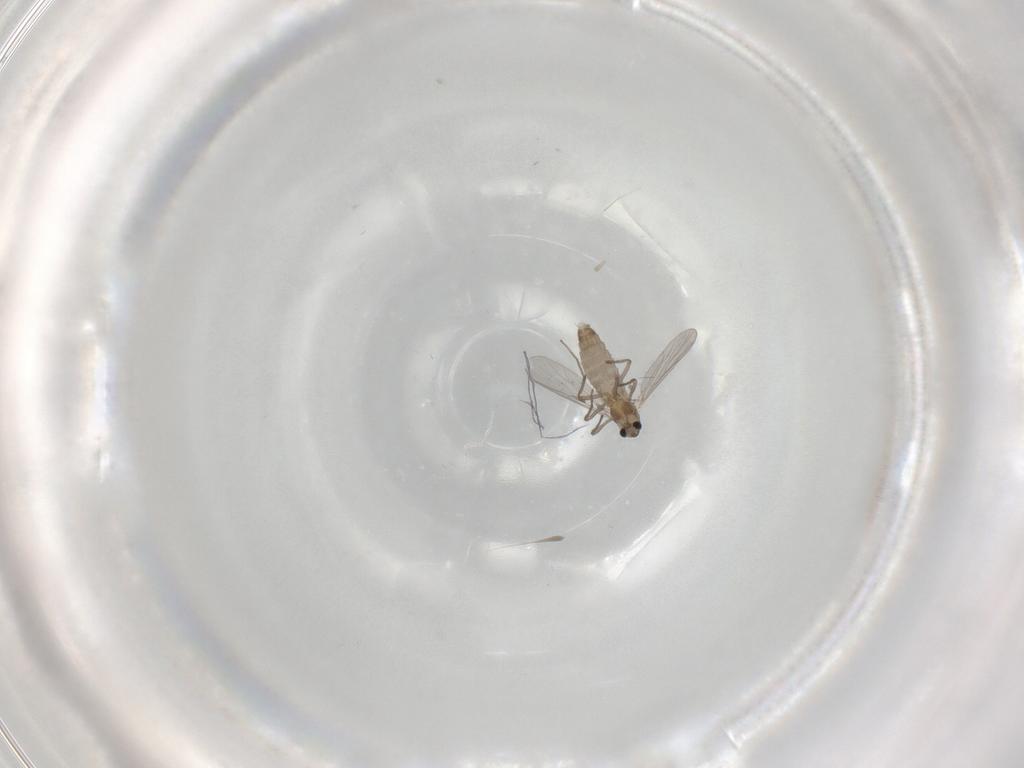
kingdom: Animalia
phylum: Arthropoda
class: Insecta
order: Diptera
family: Chironomidae
